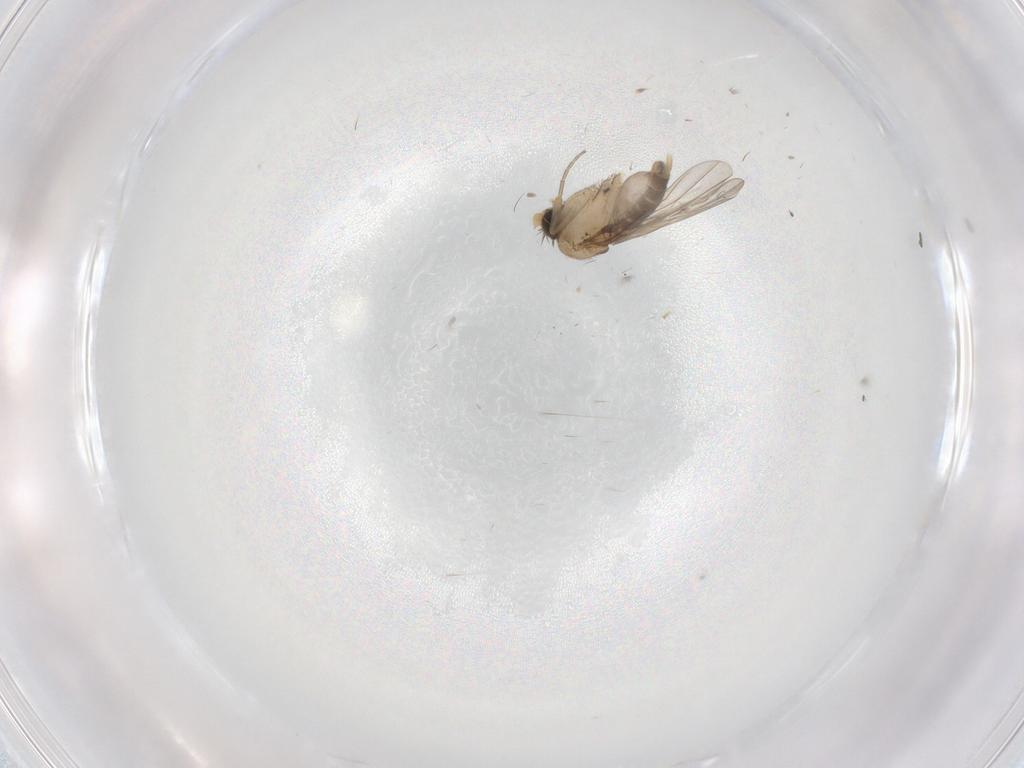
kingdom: Animalia
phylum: Arthropoda
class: Insecta
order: Diptera
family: Phoridae
